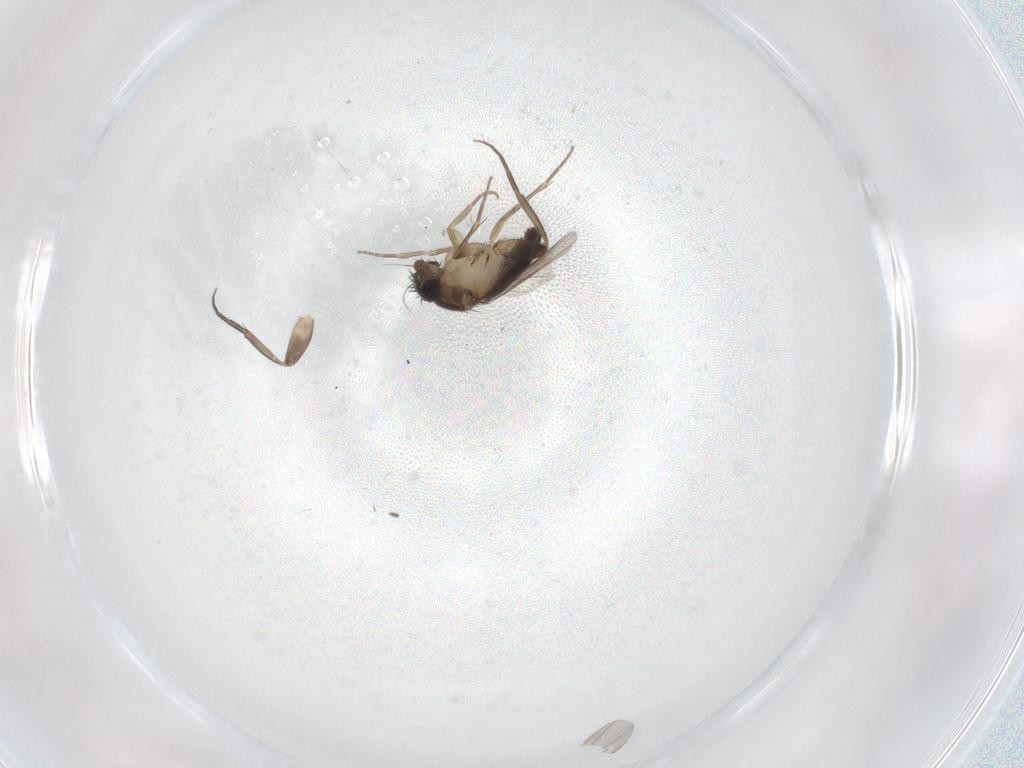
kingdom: Animalia
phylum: Arthropoda
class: Insecta
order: Diptera
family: Phoridae
